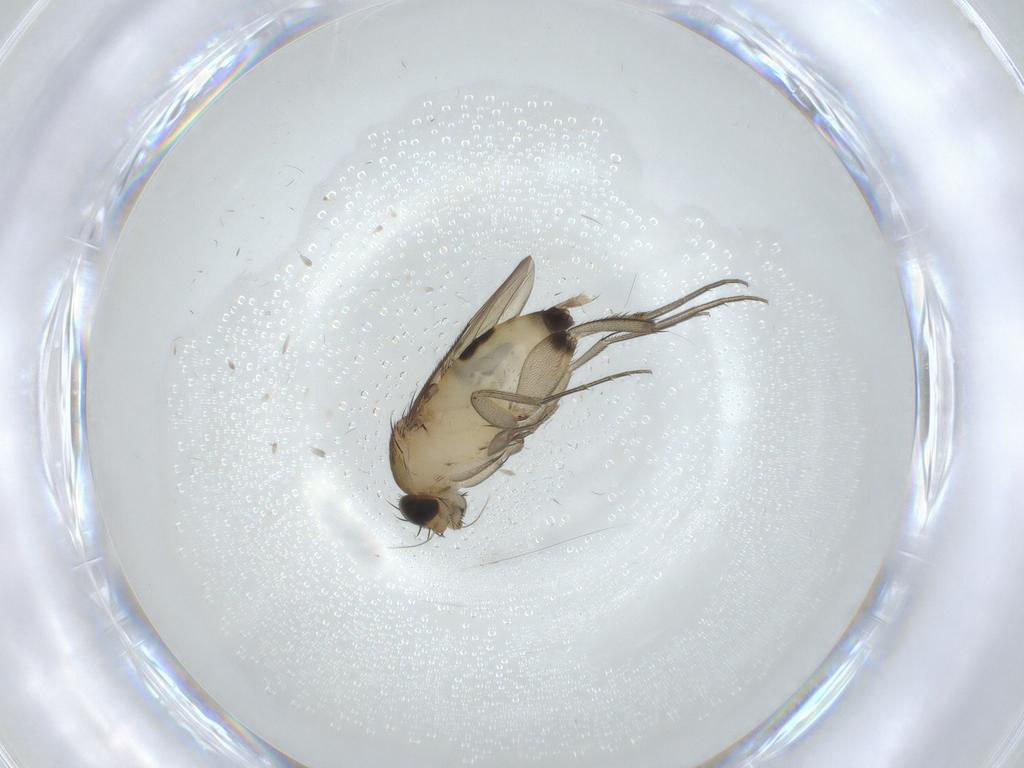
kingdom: Animalia
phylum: Arthropoda
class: Insecta
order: Diptera
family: Phoridae
